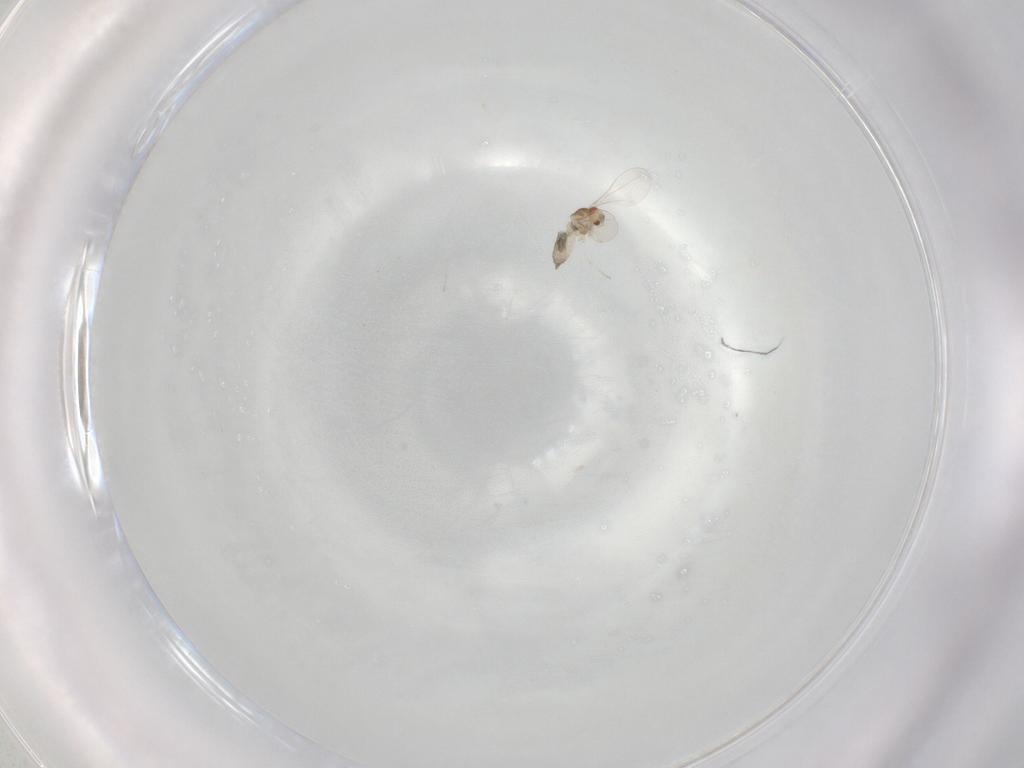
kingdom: Animalia
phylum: Arthropoda
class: Insecta
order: Diptera
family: Cecidomyiidae
